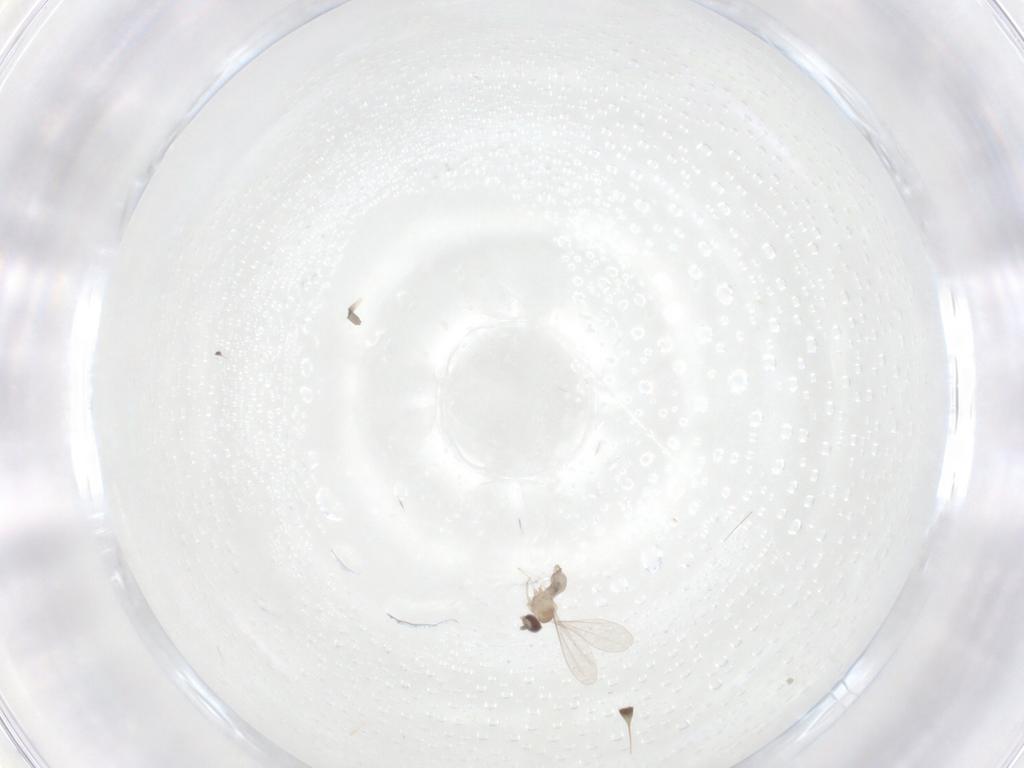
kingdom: Animalia
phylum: Arthropoda
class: Insecta
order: Diptera
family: Cecidomyiidae
